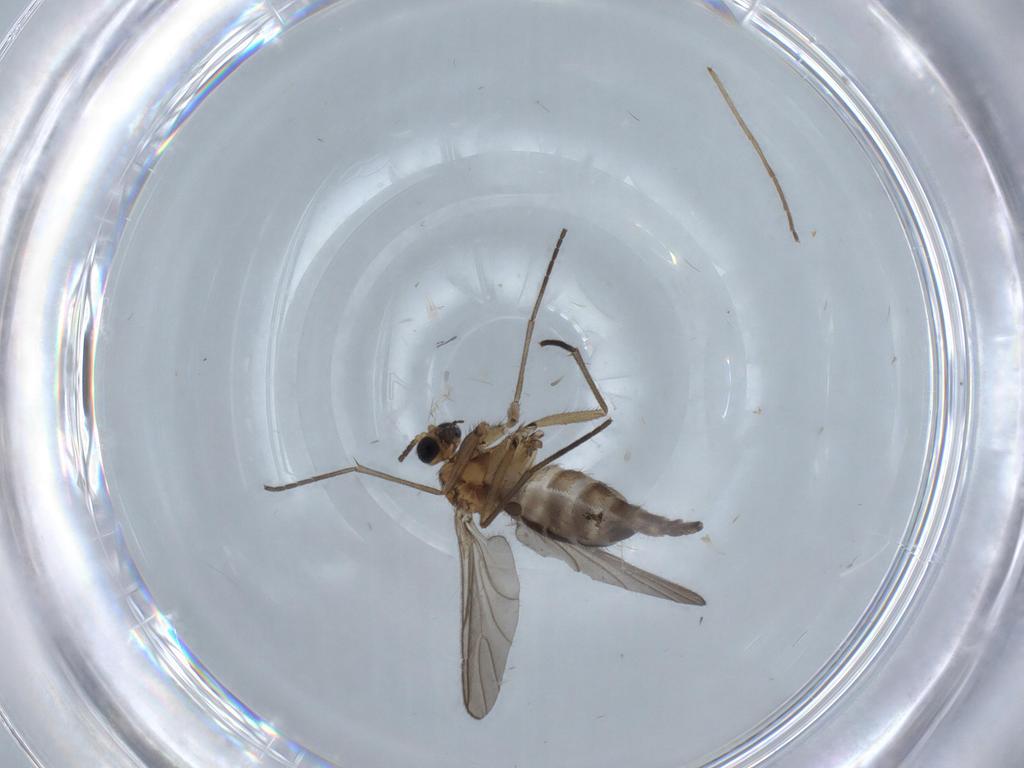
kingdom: Animalia
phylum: Arthropoda
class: Insecta
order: Diptera
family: Sciaridae
